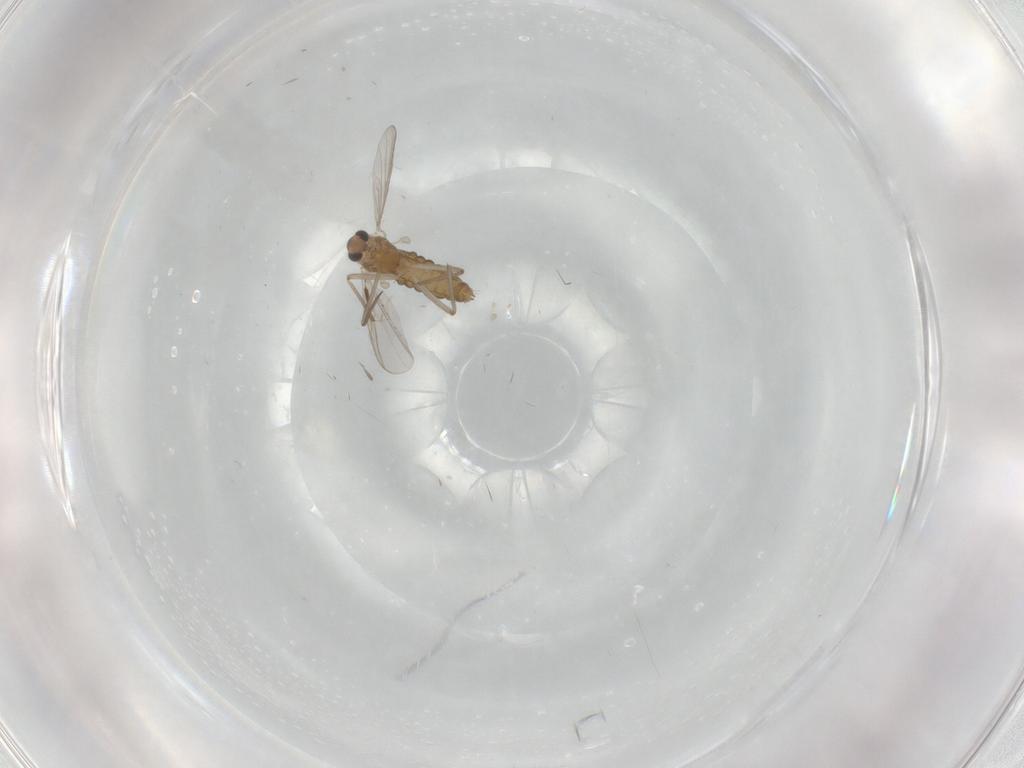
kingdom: Animalia
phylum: Arthropoda
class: Insecta
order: Diptera
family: Chironomidae
